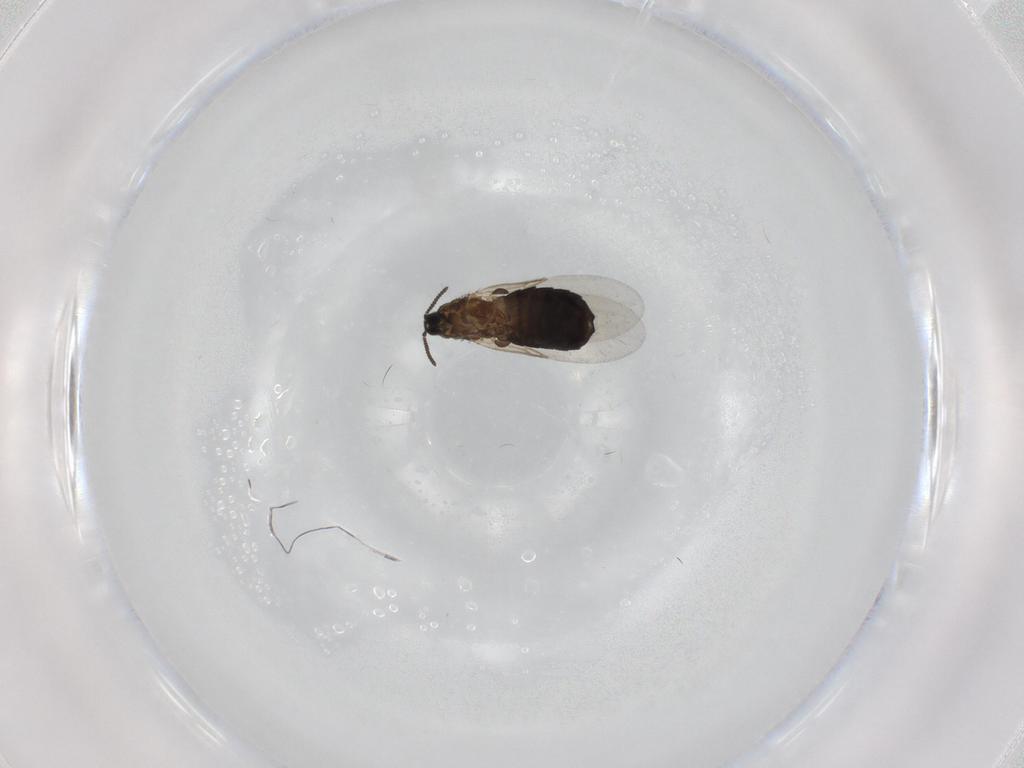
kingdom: Animalia
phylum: Arthropoda
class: Insecta
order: Diptera
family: Scatopsidae
